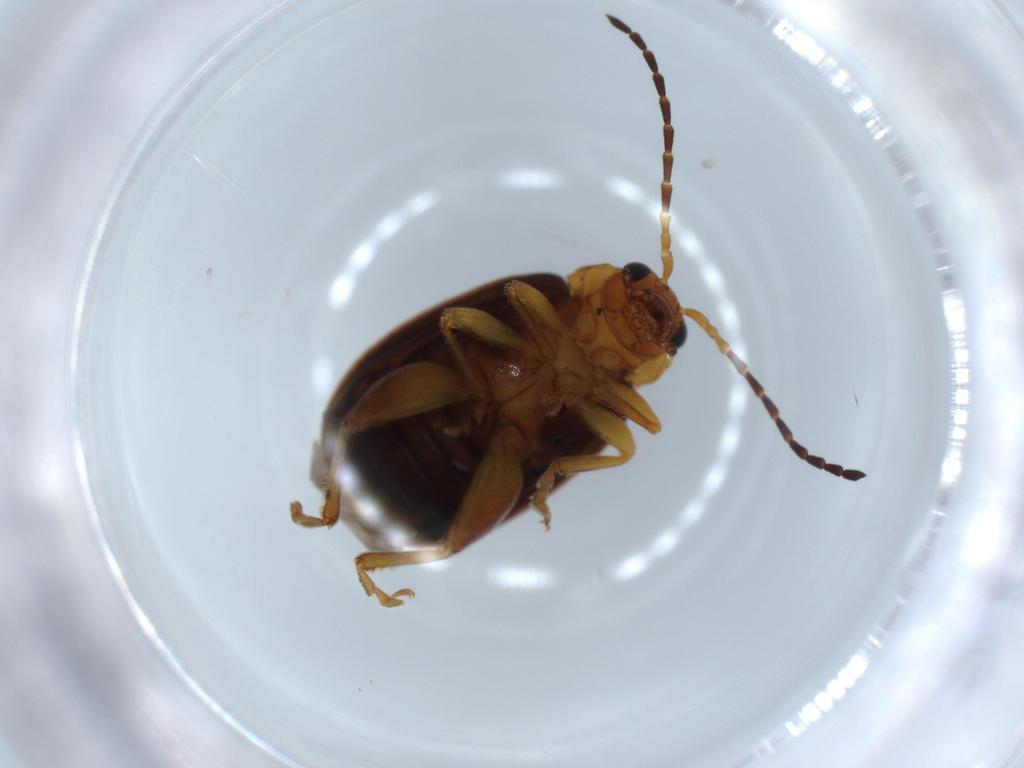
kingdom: Animalia
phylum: Arthropoda
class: Insecta
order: Coleoptera
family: Chrysomelidae
